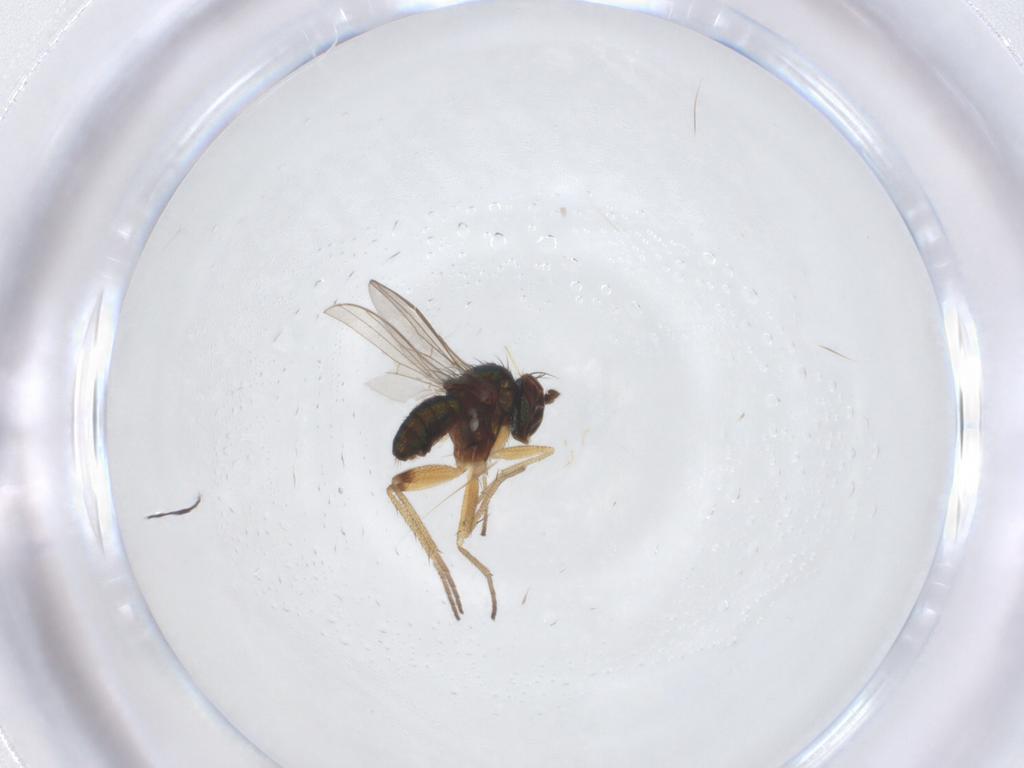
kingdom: Animalia
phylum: Arthropoda
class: Insecta
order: Diptera
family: Dolichopodidae
